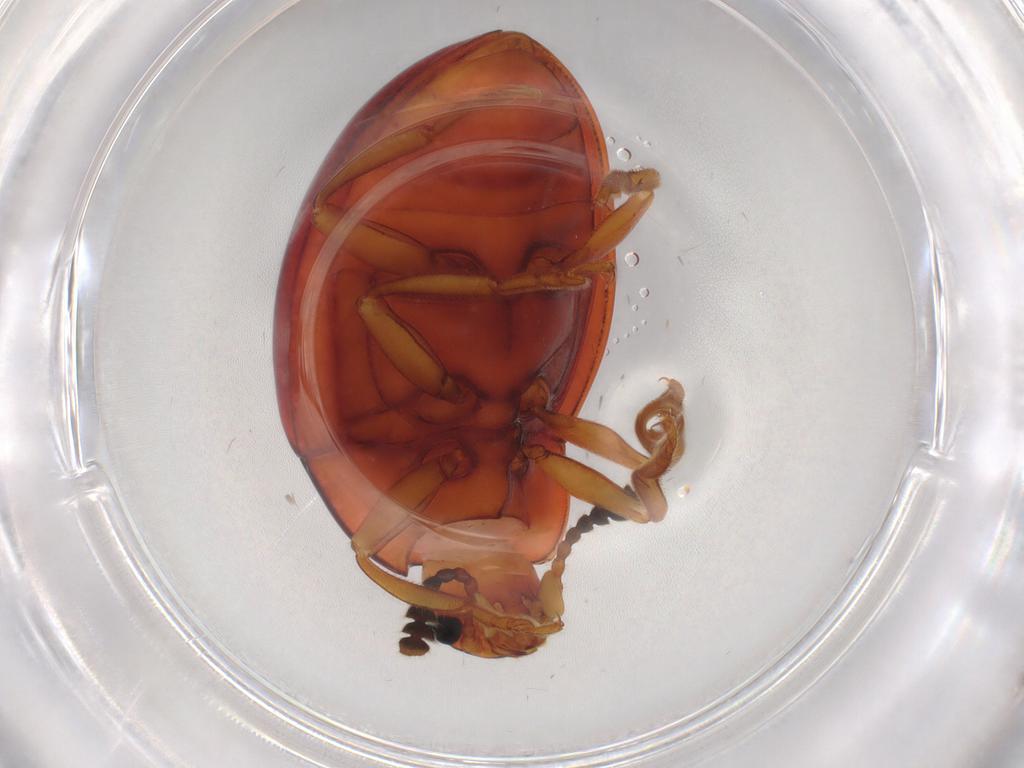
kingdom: Animalia
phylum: Arthropoda
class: Insecta
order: Coleoptera
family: Erotylidae
